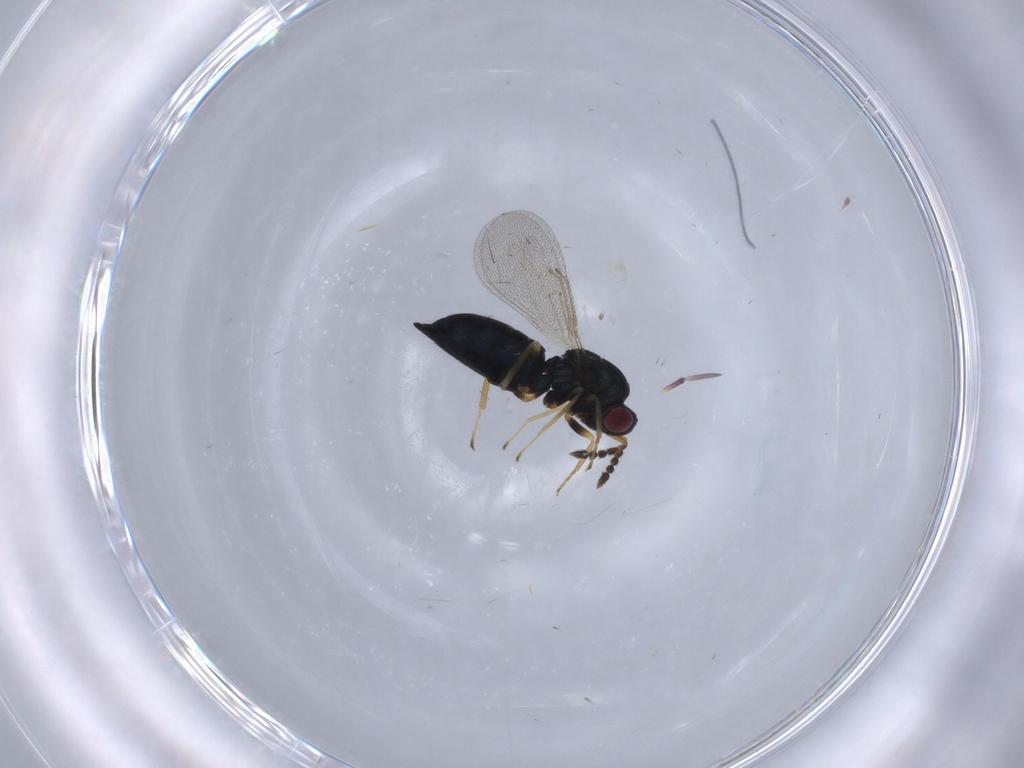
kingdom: Animalia
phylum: Arthropoda
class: Insecta
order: Hymenoptera
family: Eulophidae
